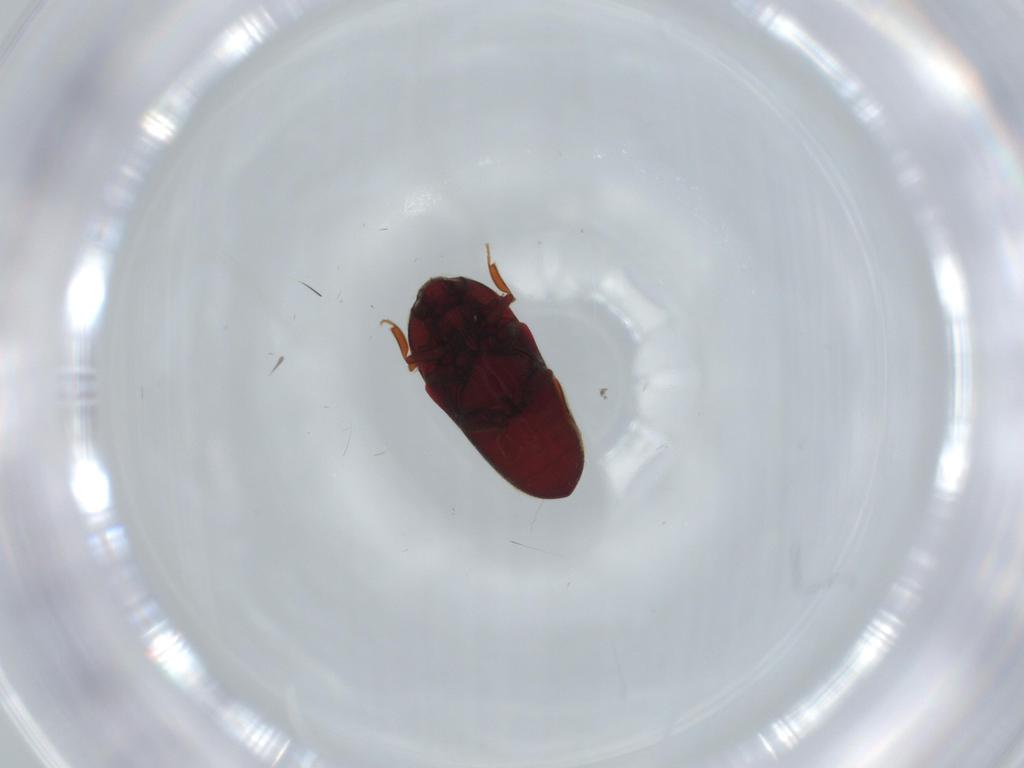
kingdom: Animalia
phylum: Arthropoda
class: Insecta
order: Coleoptera
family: Throscidae
